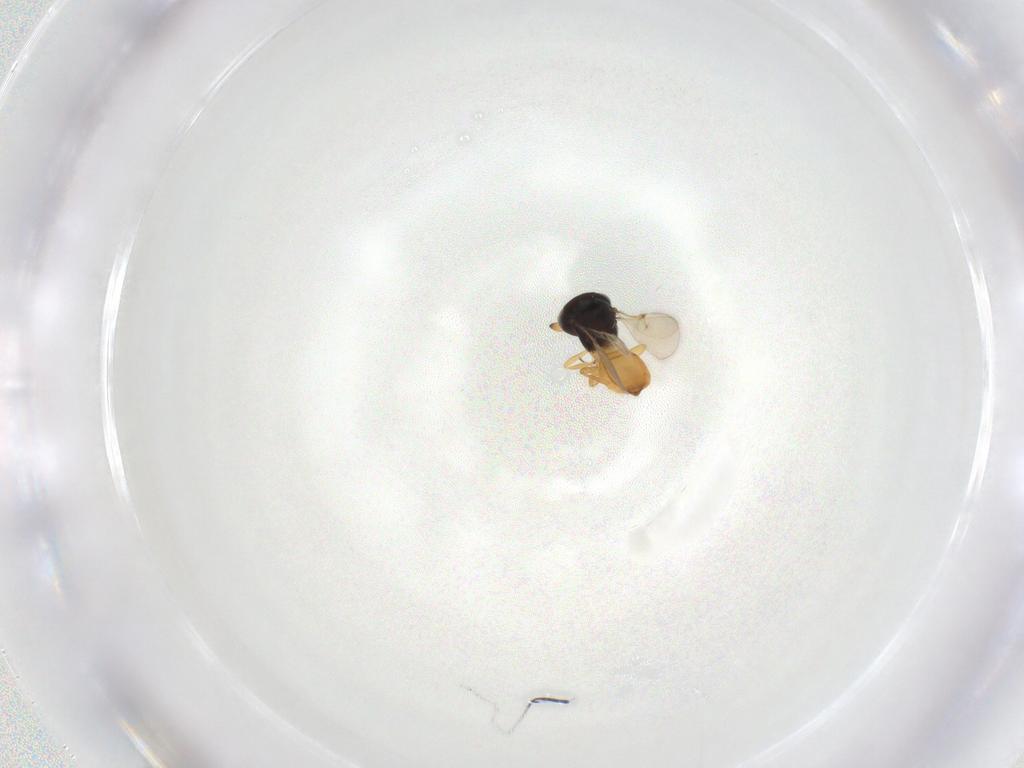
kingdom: Animalia
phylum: Arthropoda
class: Insecta
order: Hymenoptera
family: Scelionidae
